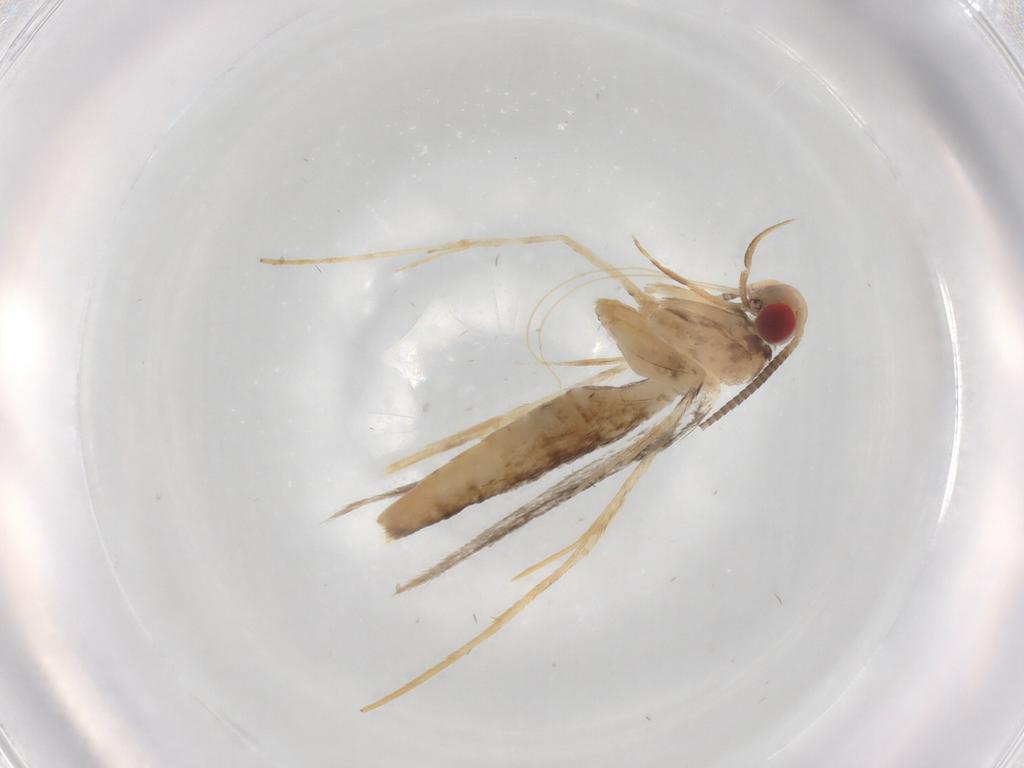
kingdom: Animalia
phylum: Arthropoda
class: Insecta
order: Lepidoptera
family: Gracillariidae
